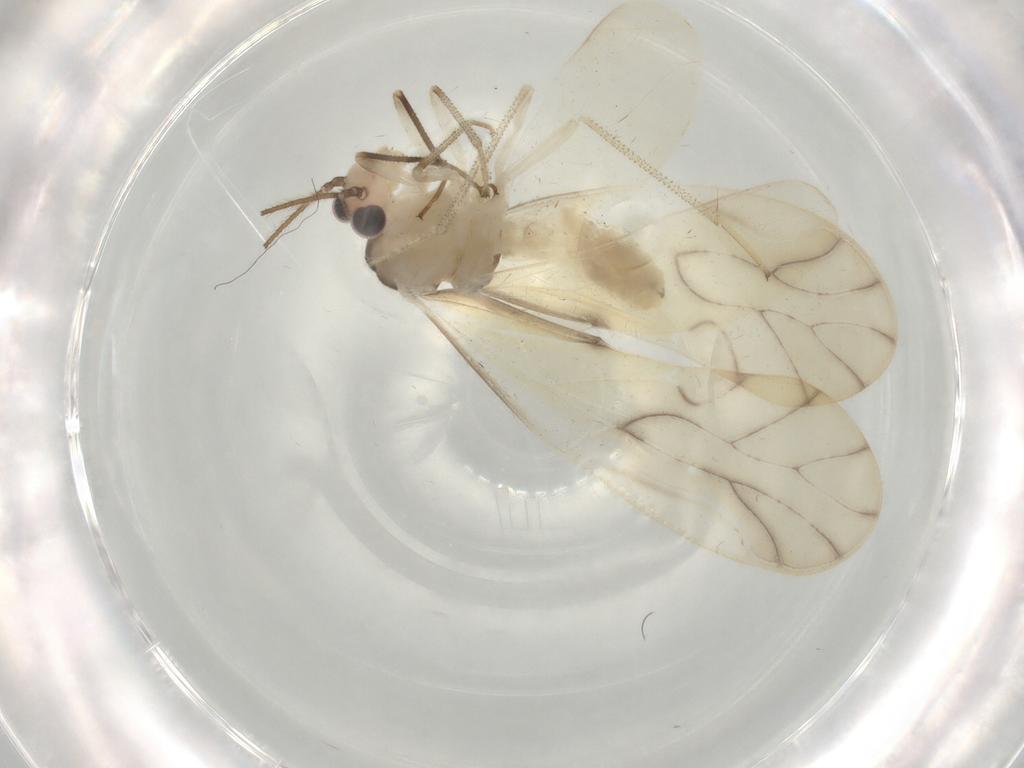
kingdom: Animalia
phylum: Arthropoda
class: Insecta
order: Psocodea
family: Caeciliusidae
